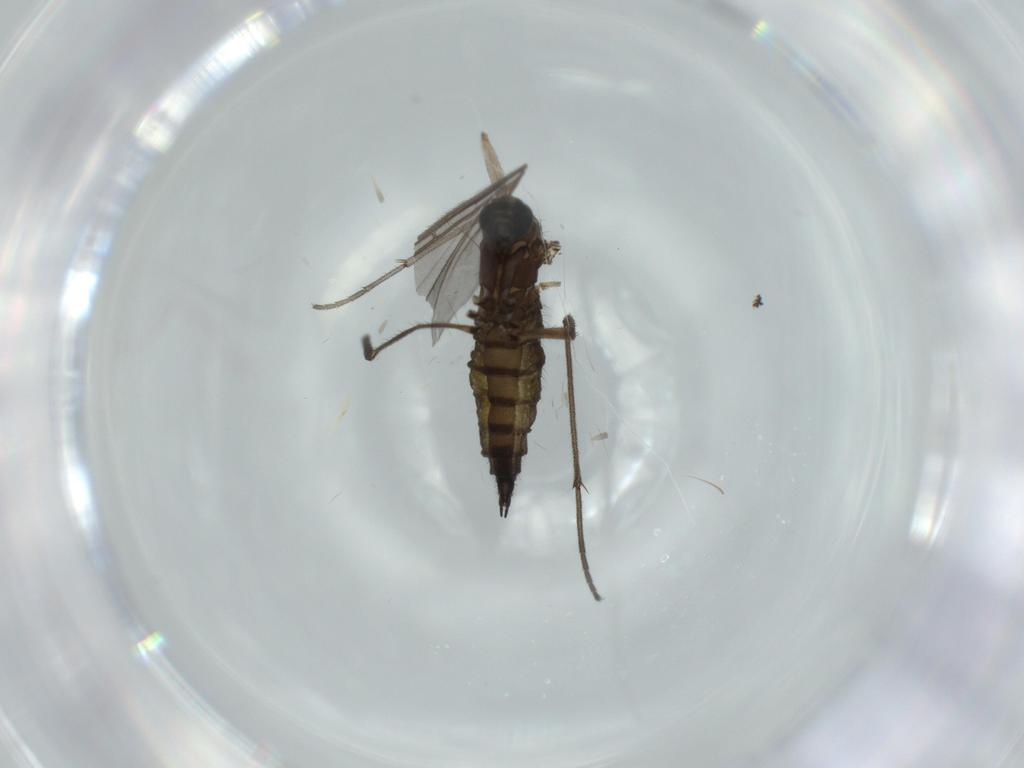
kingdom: Animalia
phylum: Arthropoda
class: Insecta
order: Diptera
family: Sciaridae
